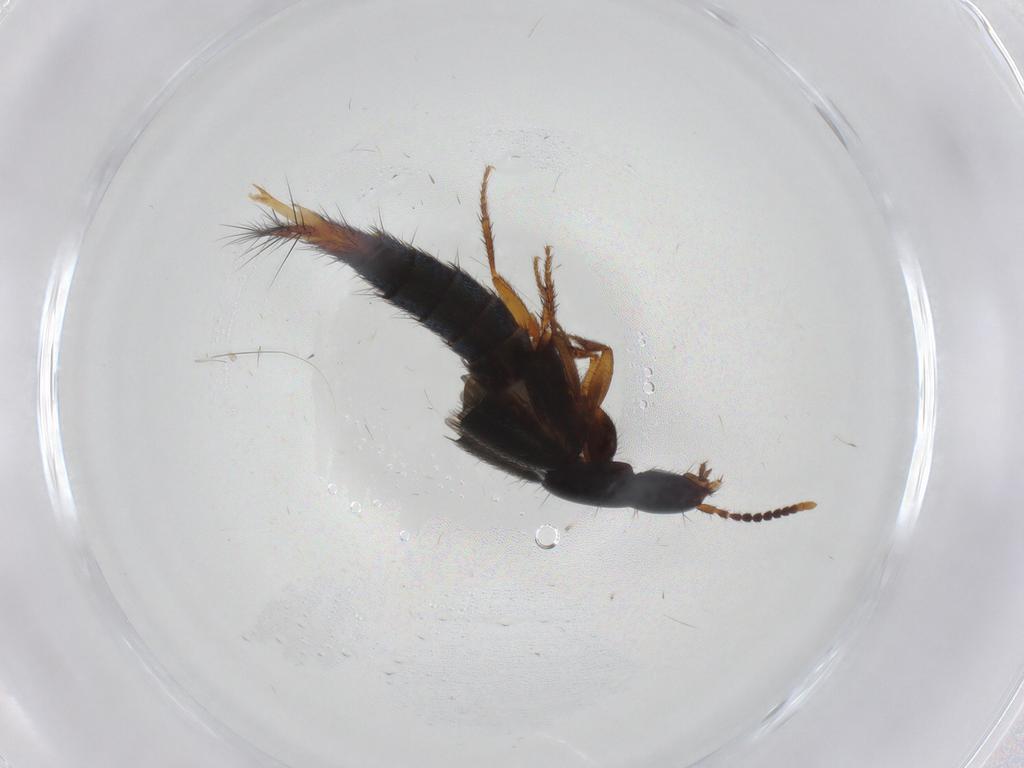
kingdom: Animalia
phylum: Arthropoda
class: Insecta
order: Coleoptera
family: Staphylinidae
